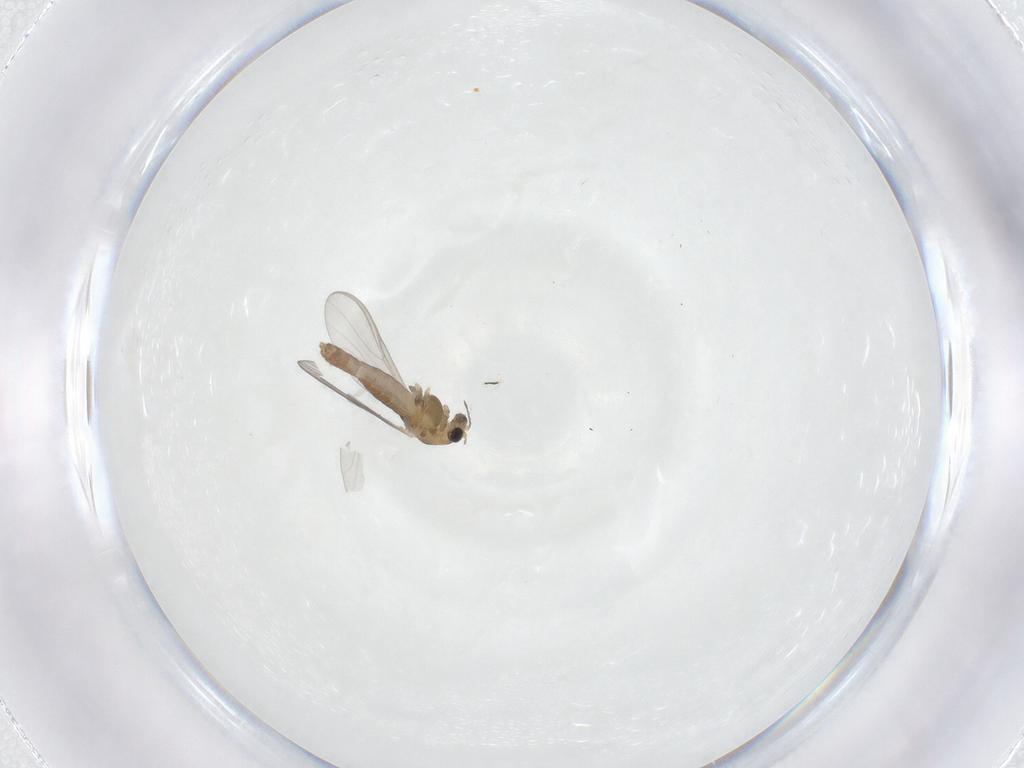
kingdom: Animalia
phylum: Arthropoda
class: Insecta
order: Diptera
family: Chironomidae
